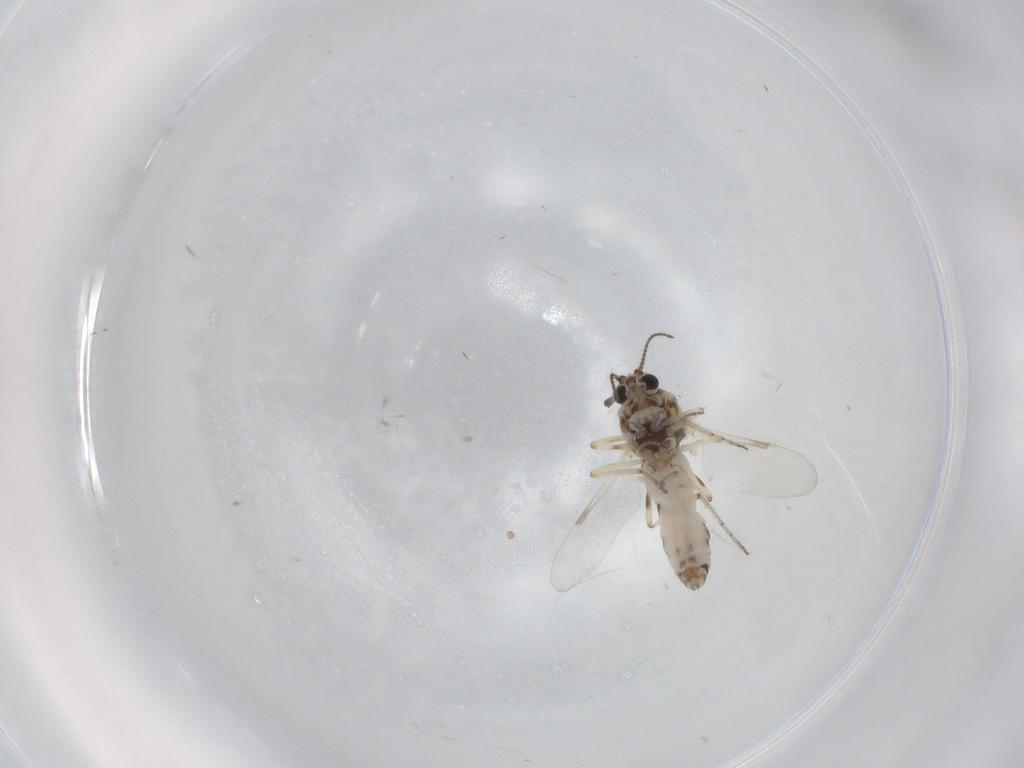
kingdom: Animalia
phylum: Arthropoda
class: Insecta
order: Diptera
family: Ceratopogonidae
